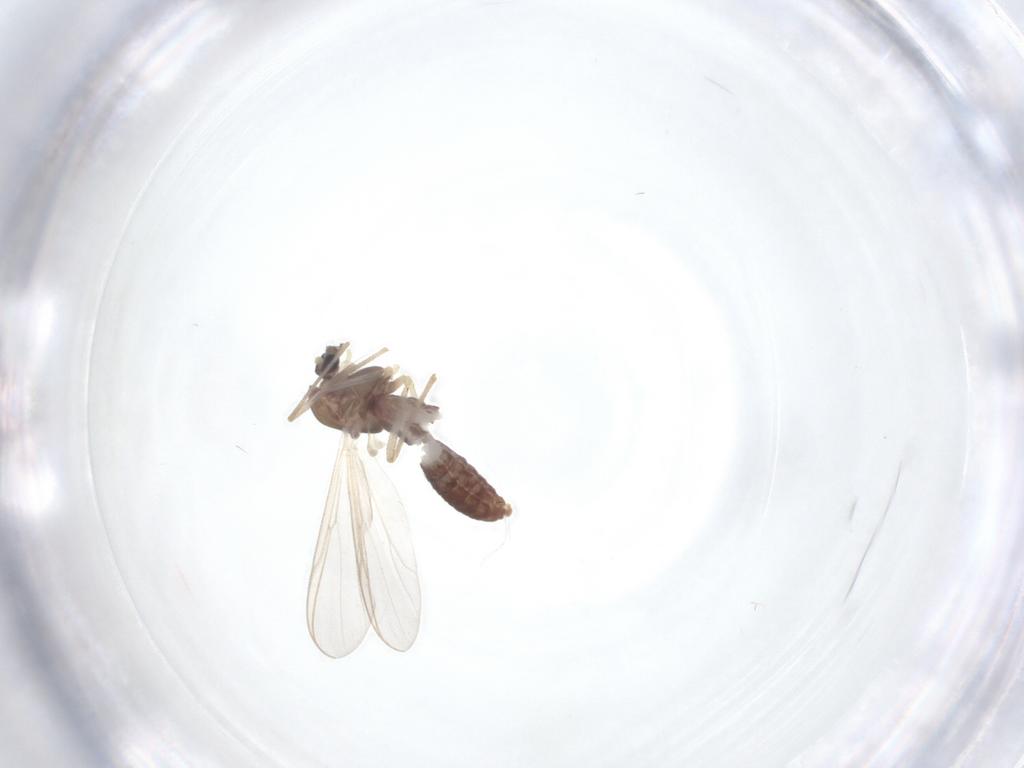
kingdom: Animalia
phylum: Arthropoda
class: Insecta
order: Diptera
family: Chironomidae
